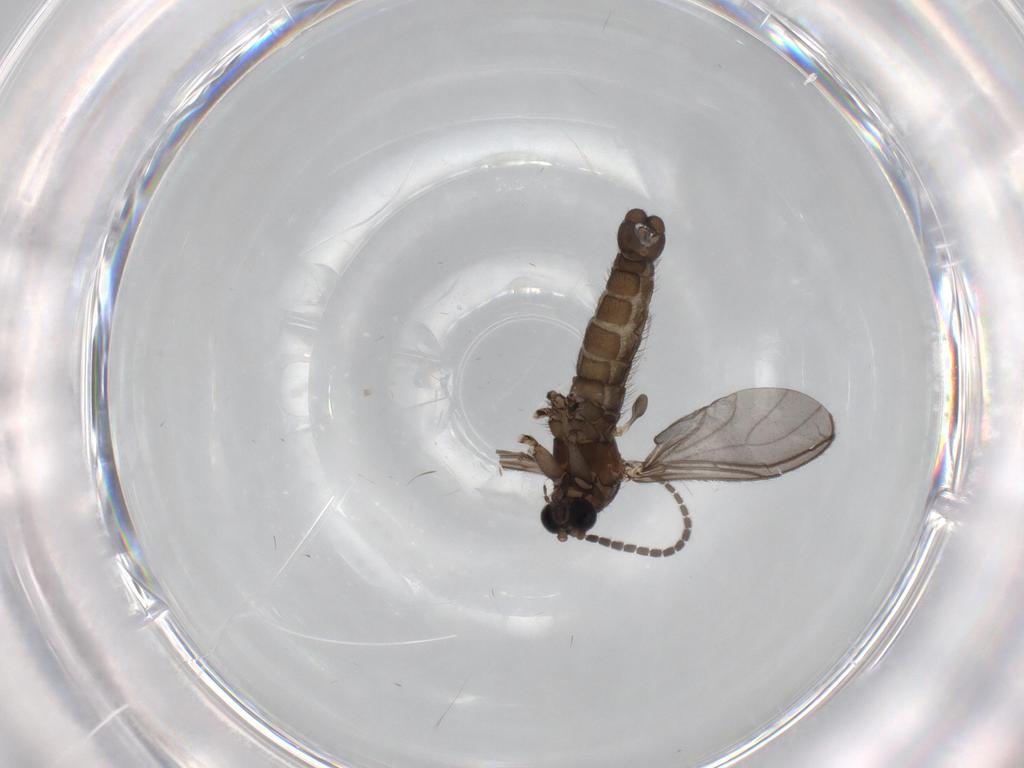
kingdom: Animalia
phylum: Arthropoda
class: Insecta
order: Diptera
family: Sciaridae
